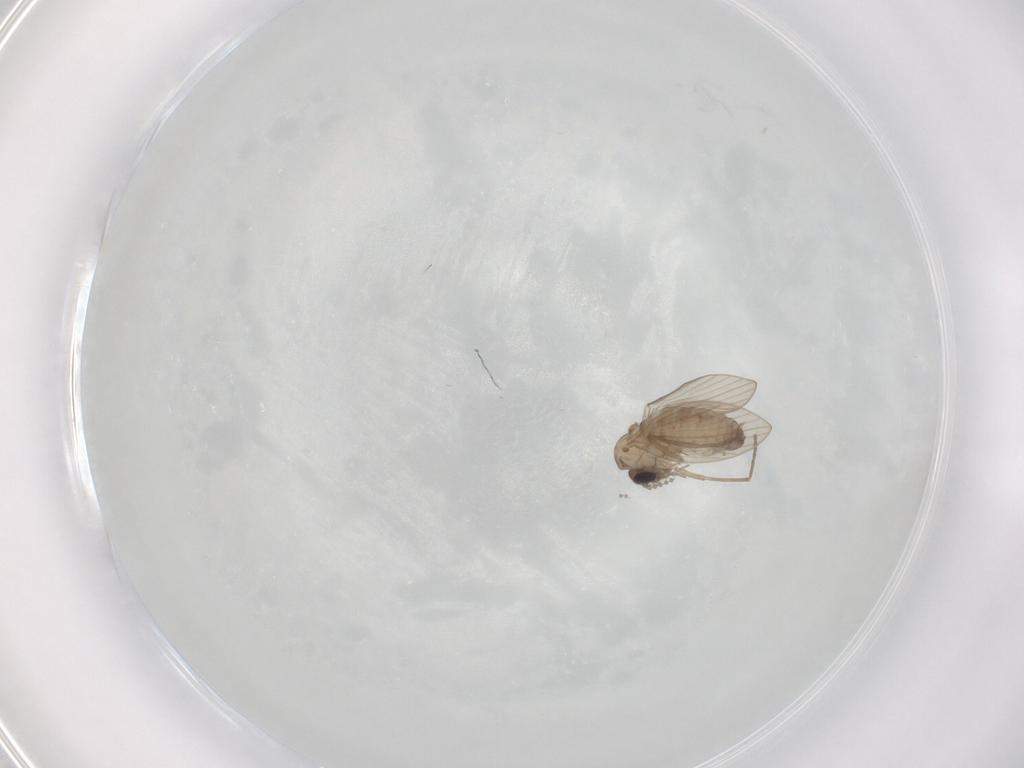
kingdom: Animalia
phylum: Arthropoda
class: Insecta
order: Diptera
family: Psychodidae
